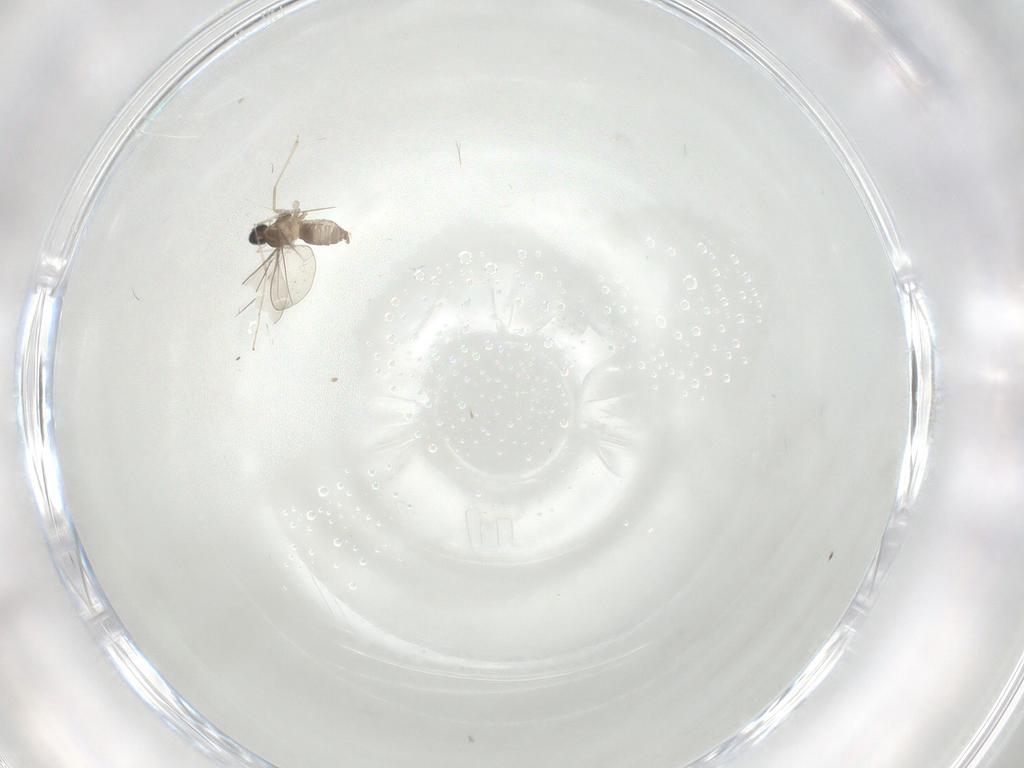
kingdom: Animalia
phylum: Arthropoda
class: Insecta
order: Diptera
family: Cecidomyiidae
